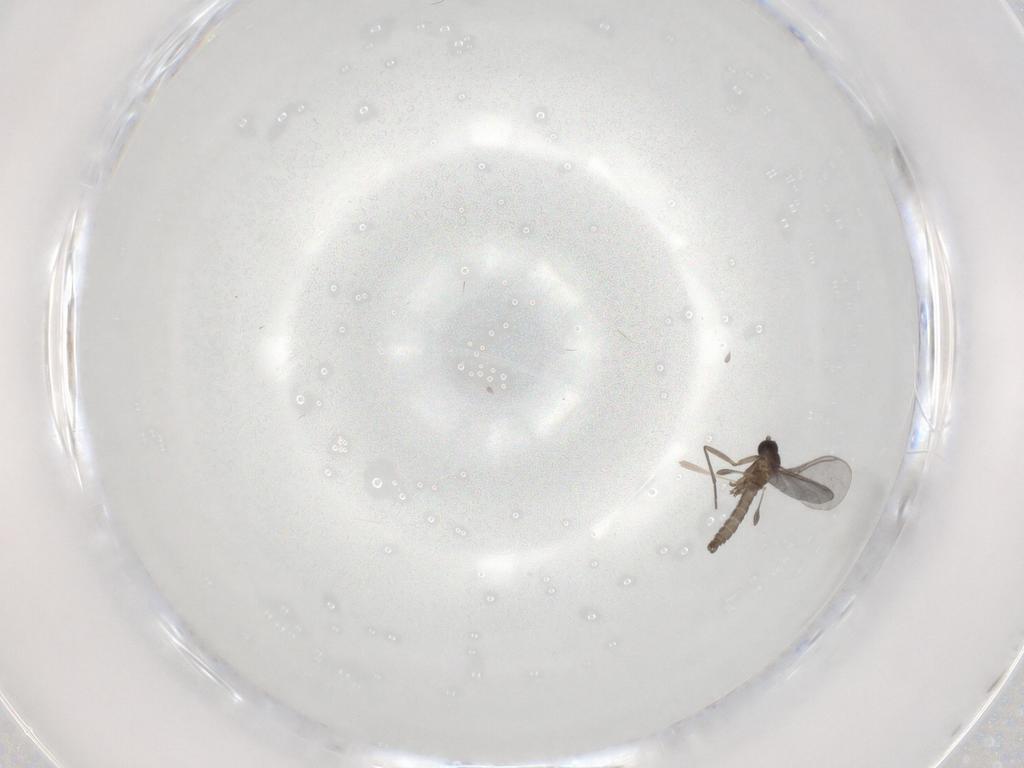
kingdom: Animalia
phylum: Arthropoda
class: Insecta
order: Diptera
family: Sciaridae
